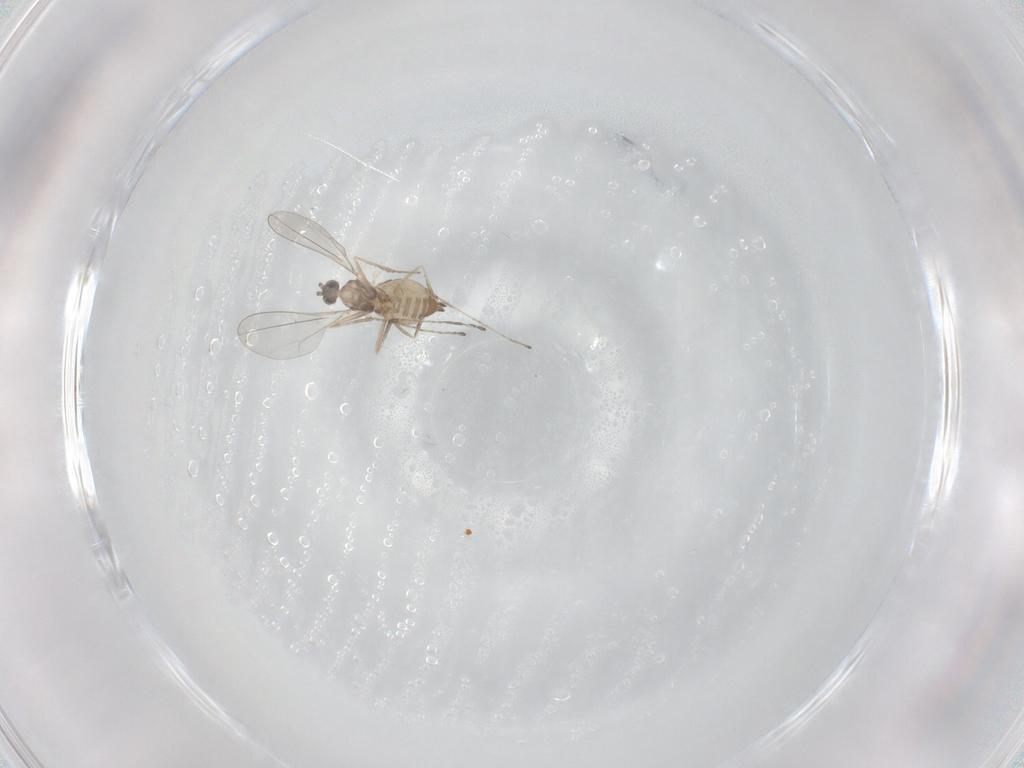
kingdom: Animalia
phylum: Arthropoda
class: Insecta
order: Diptera
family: Cecidomyiidae
